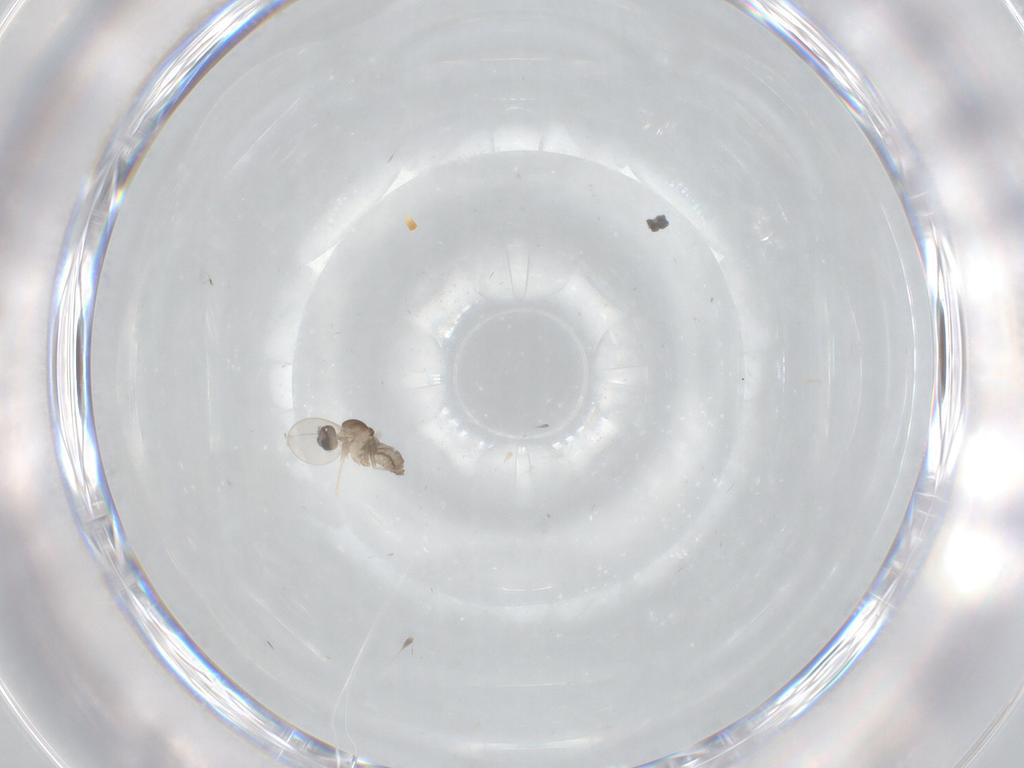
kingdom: Animalia
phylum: Arthropoda
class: Insecta
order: Diptera
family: Cecidomyiidae
